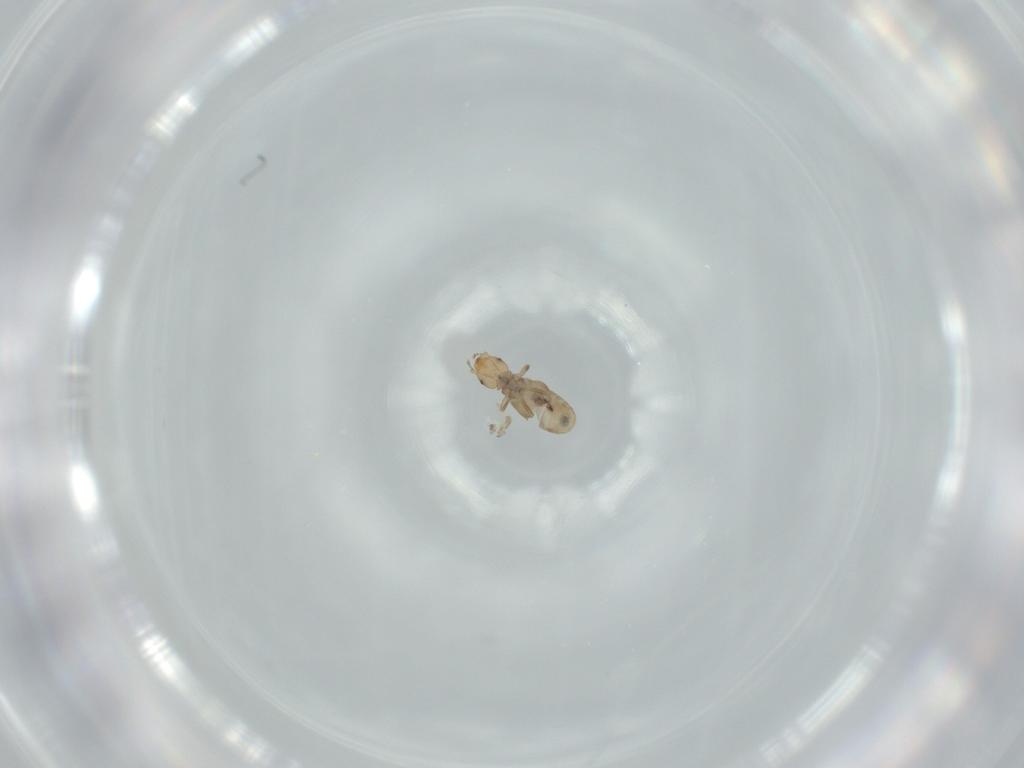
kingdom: Animalia
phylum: Arthropoda
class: Insecta
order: Psocodea
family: Liposcelididae
